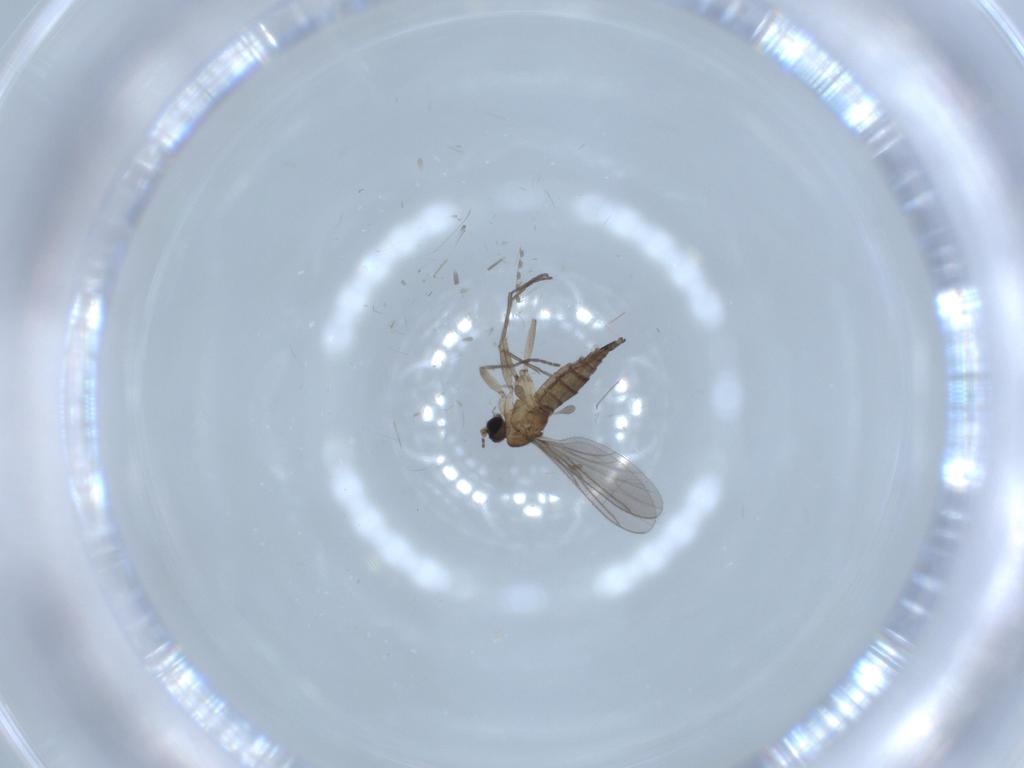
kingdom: Animalia
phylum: Arthropoda
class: Insecta
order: Diptera
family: Sciaridae
